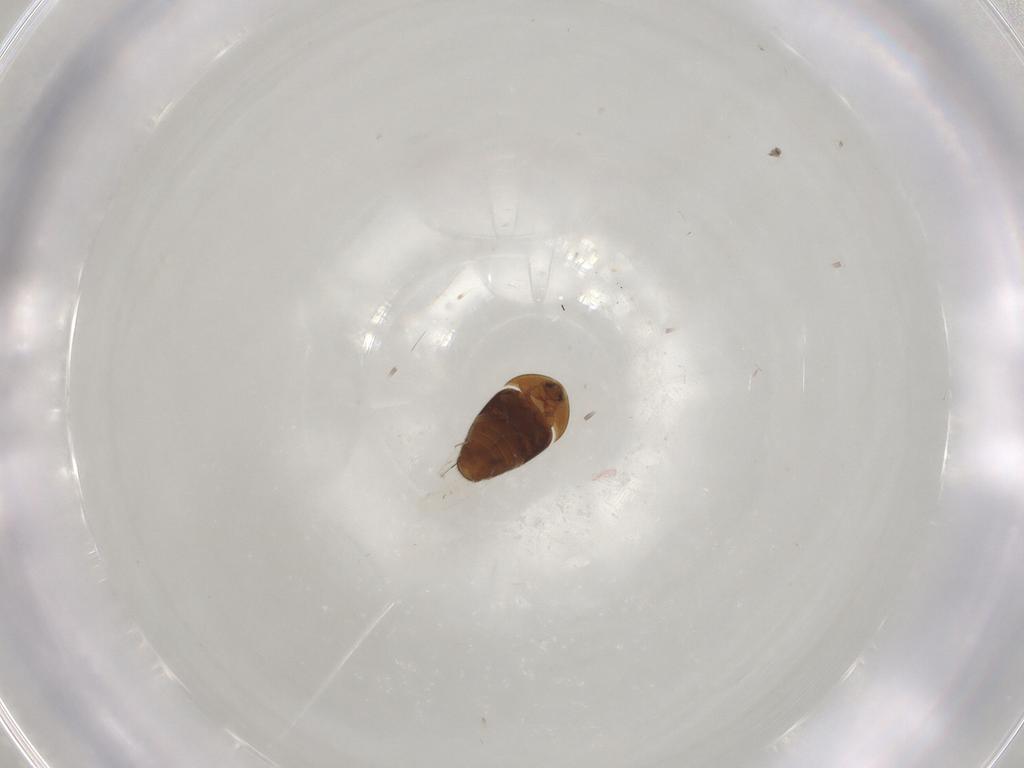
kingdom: Animalia
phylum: Arthropoda
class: Insecta
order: Coleoptera
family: Corylophidae
